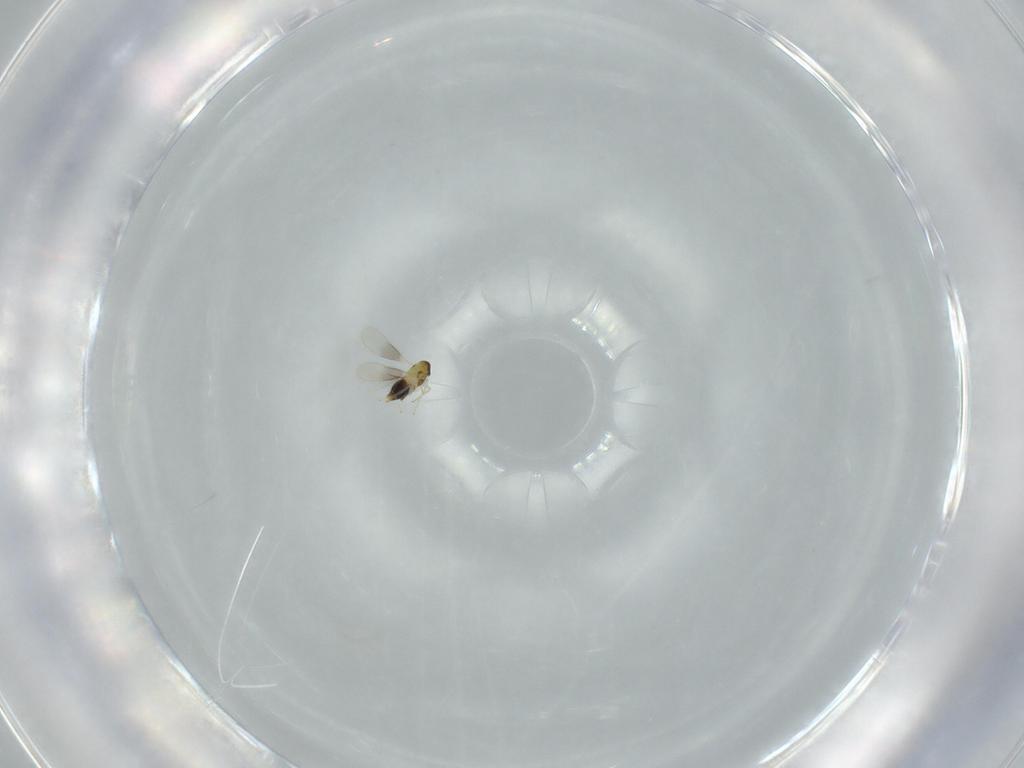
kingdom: Animalia
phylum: Arthropoda
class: Insecta
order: Hymenoptera
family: Aphelinidae
